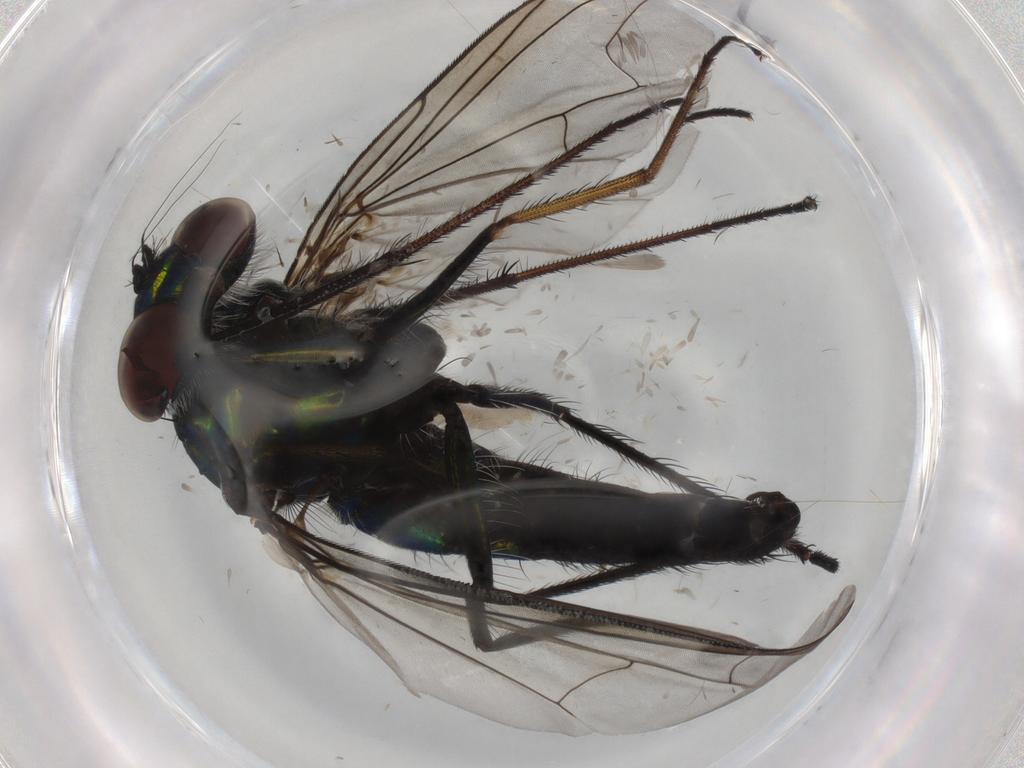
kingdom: Animalia
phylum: Arthropoda
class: Insecta
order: Diptera
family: Dolichopodidae
